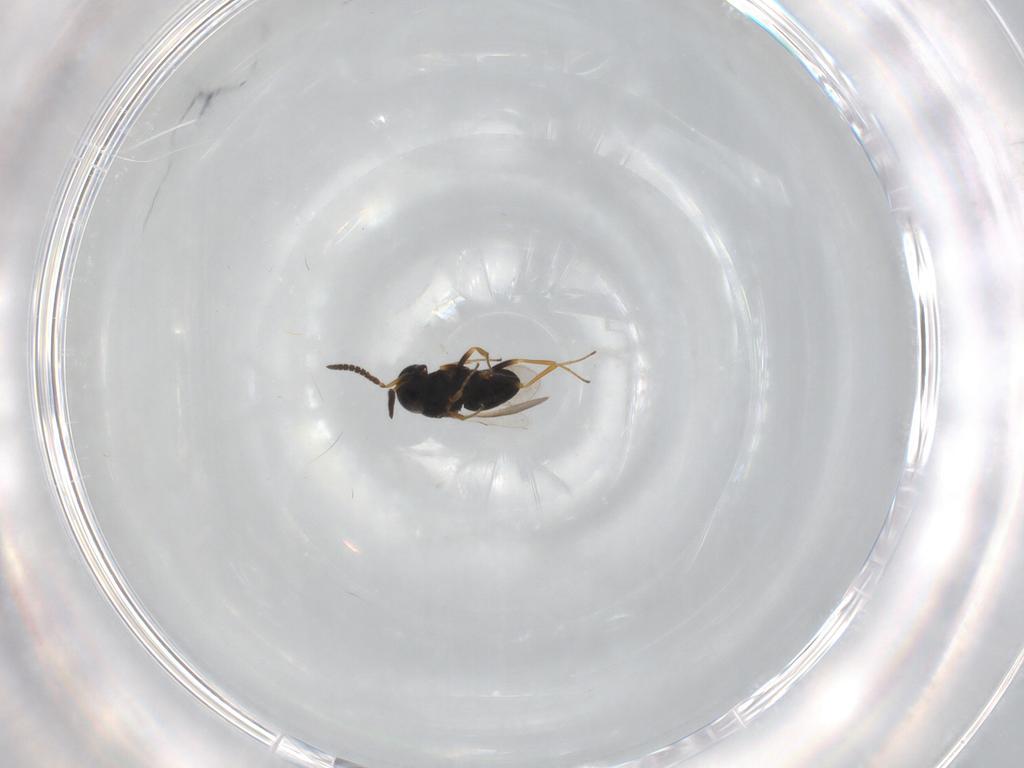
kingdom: Animalia
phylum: Arthropoda
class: Insecta
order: Hymenoptera
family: Scelionidae
